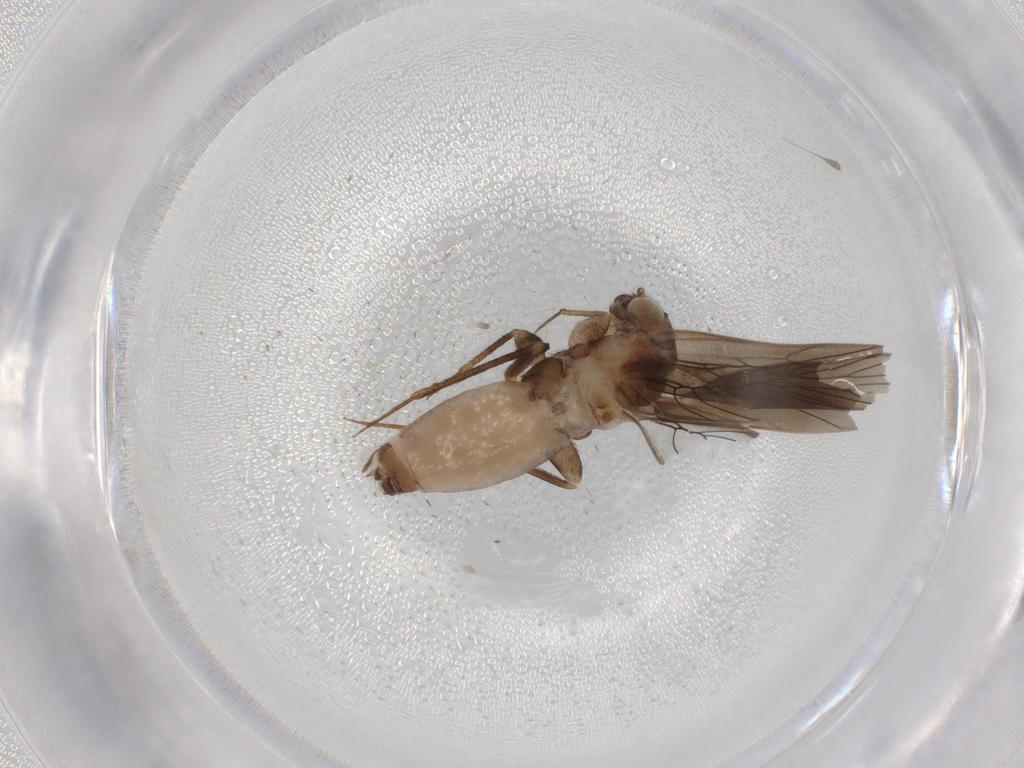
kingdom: Animalia
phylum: Arthropoda
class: Insecta
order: Psocodea
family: Lepidopsocidae
